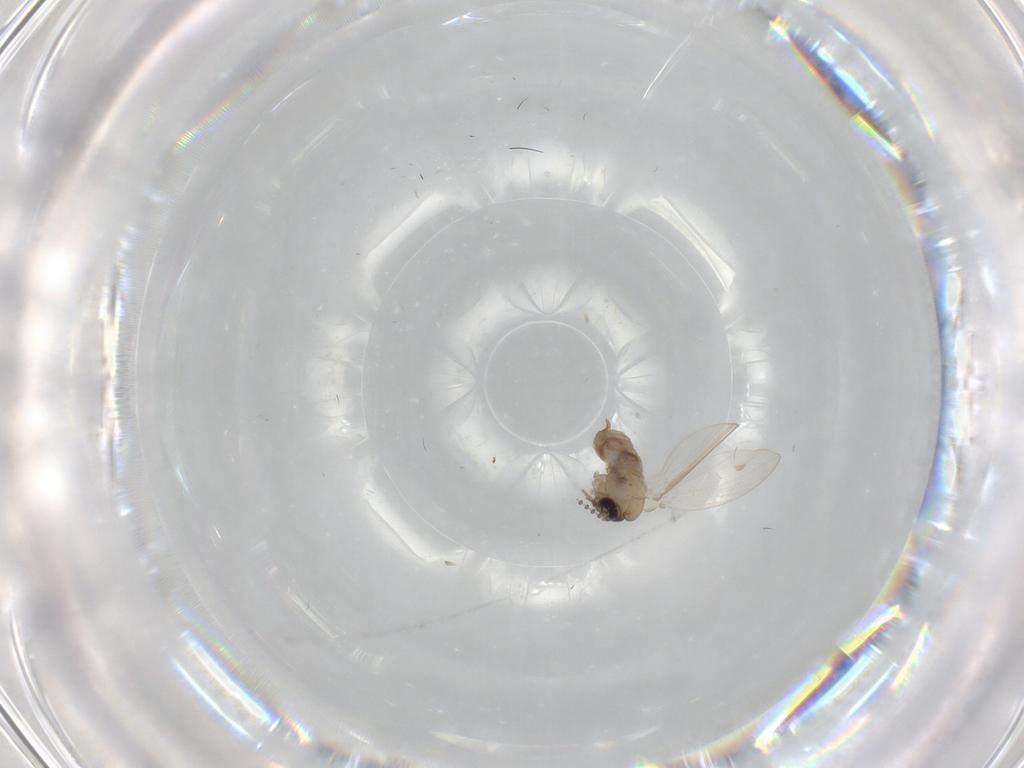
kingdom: Animalia
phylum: Arthropoda
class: Insecta
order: Diptera
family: Psychodidae
